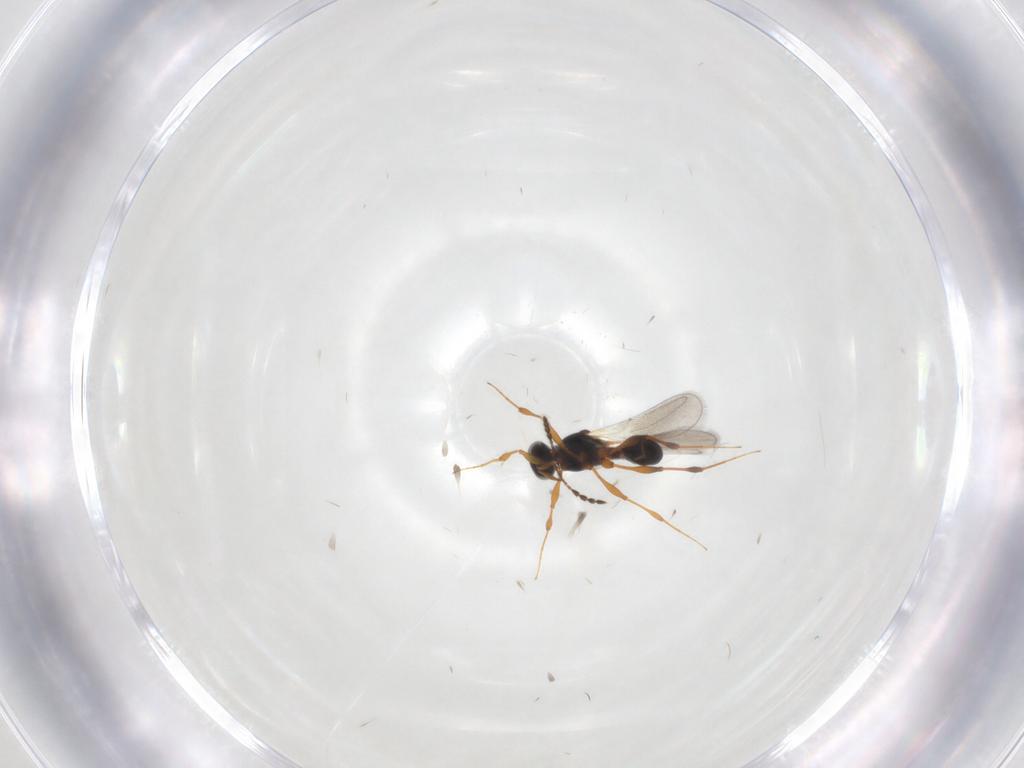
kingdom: Animalia
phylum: Arthropoda
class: Insecta
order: Hymenoptera
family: Platygastridae
